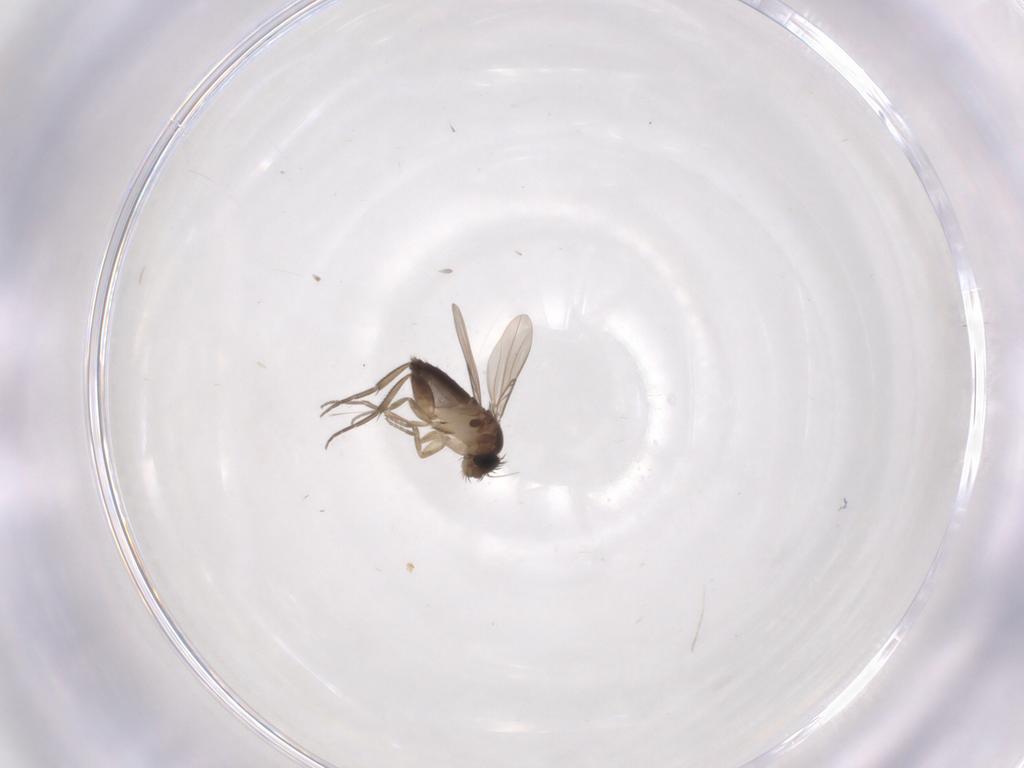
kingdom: Animalia
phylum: Arthropoda
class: Insecta
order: Diptera
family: Phoridae
